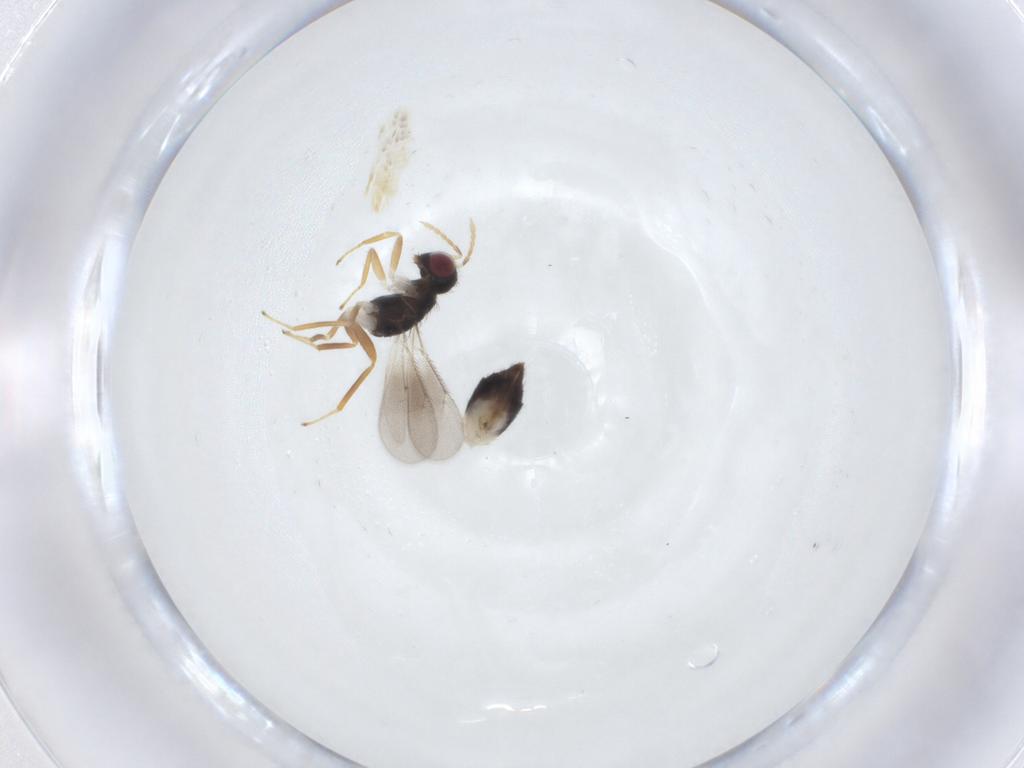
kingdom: Animalia
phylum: Arthropoda
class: Insecta
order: Hymenoptera
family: Eulophidae
